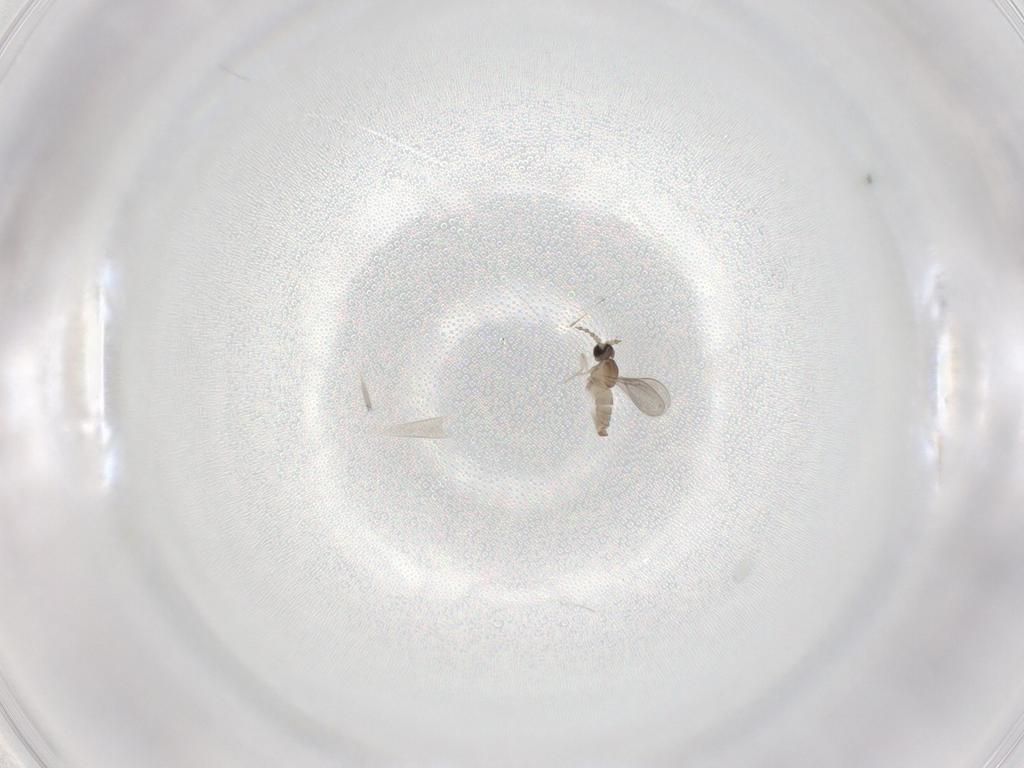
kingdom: Animalia
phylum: Arthropoda
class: Insecta
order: Diptera
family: Cecidomyiidae
